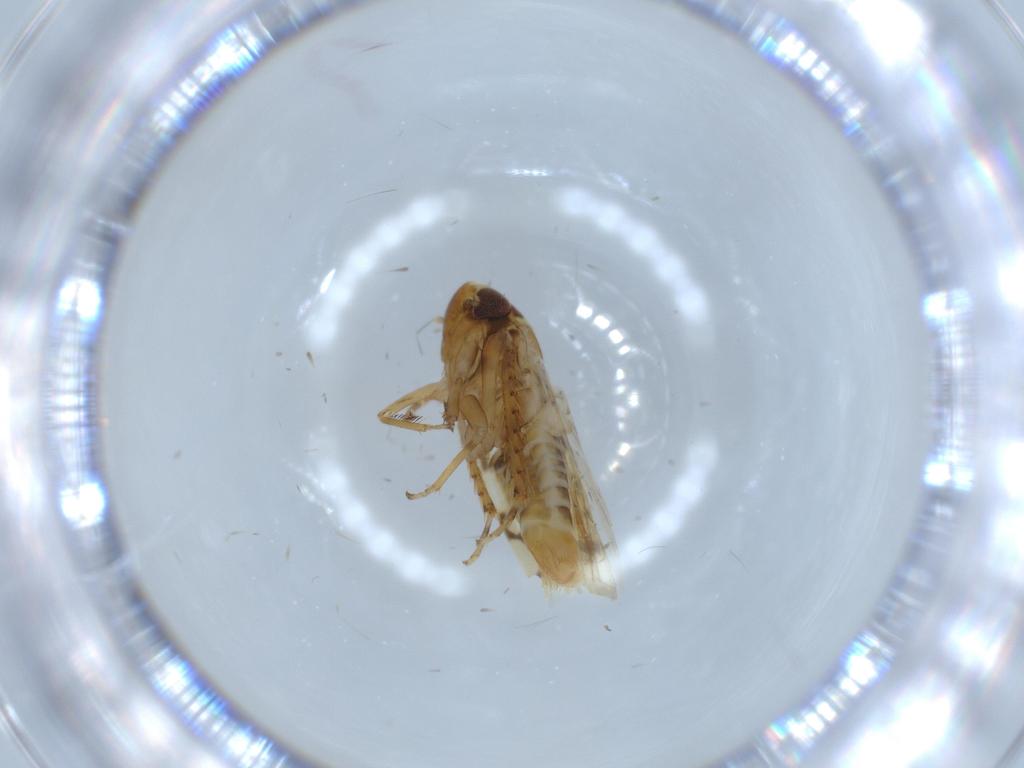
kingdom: Animalia
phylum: Arthropoda
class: Insecta
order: Hemiptera
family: Cicadellidae
